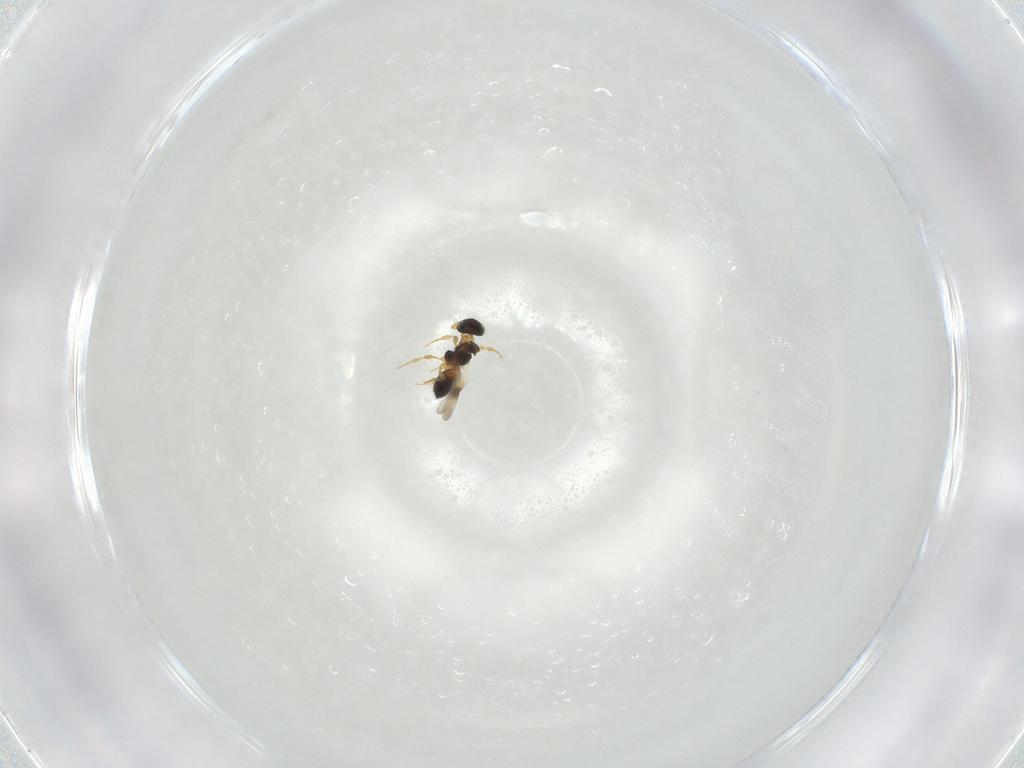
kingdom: Animalia
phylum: Arthropoda
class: Insecta
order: Hymenoptera
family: Platygastridae
